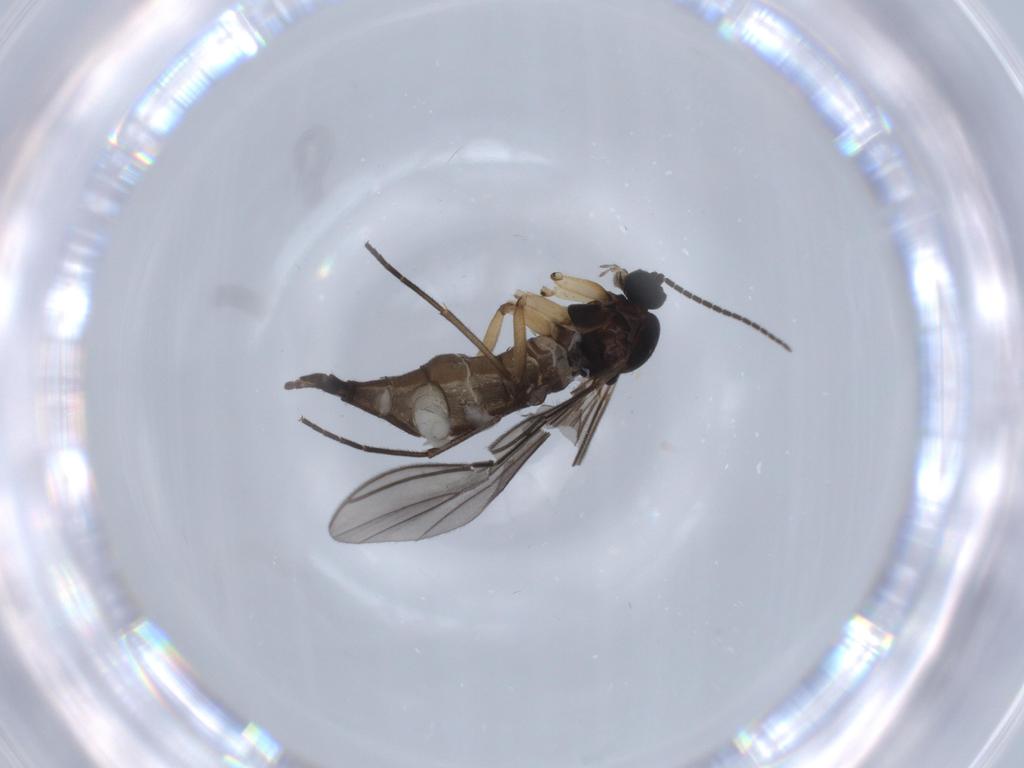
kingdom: Animalia
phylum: Arthropoda
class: Insecta
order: Diptera
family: Sciaridae
